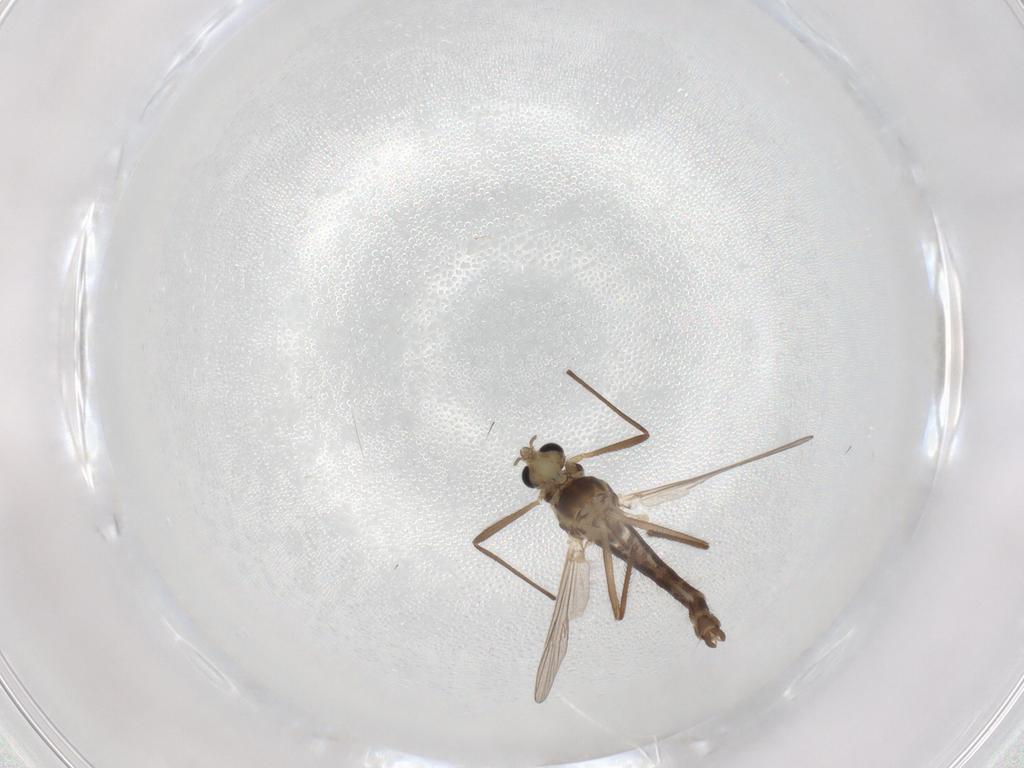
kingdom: Animalia
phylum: Arthropoda
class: Insecta
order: Diptera
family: Chironomidae
